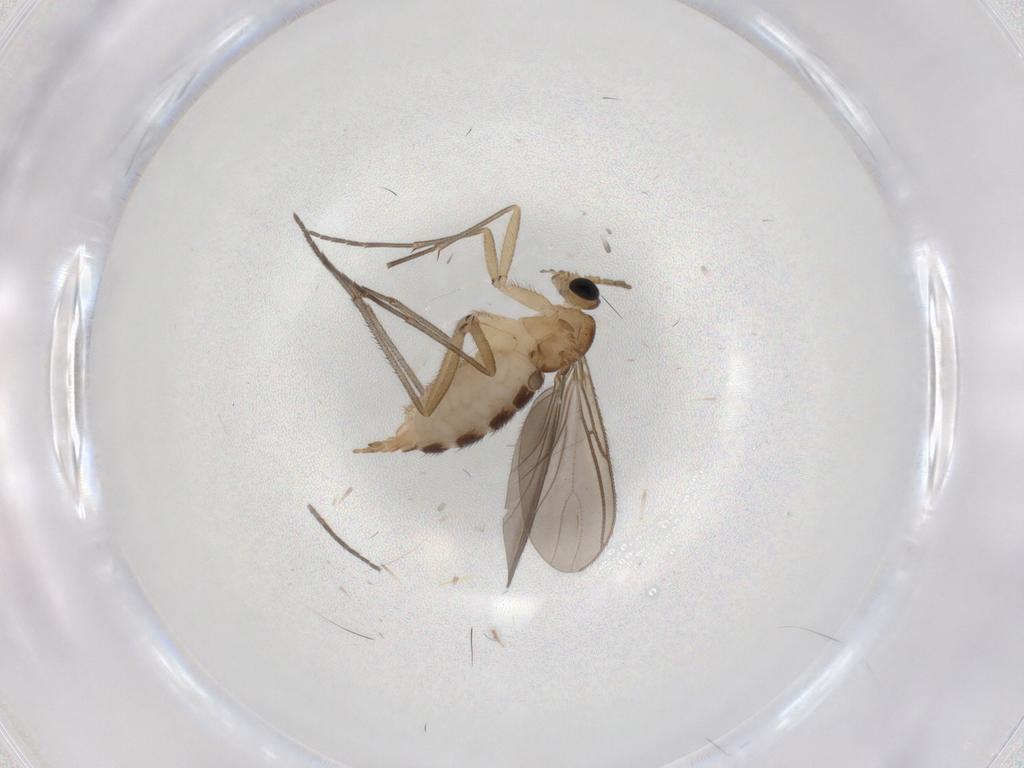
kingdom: Animalia
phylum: Arthropoda
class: Insecta
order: Diptera
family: Sciaridae
